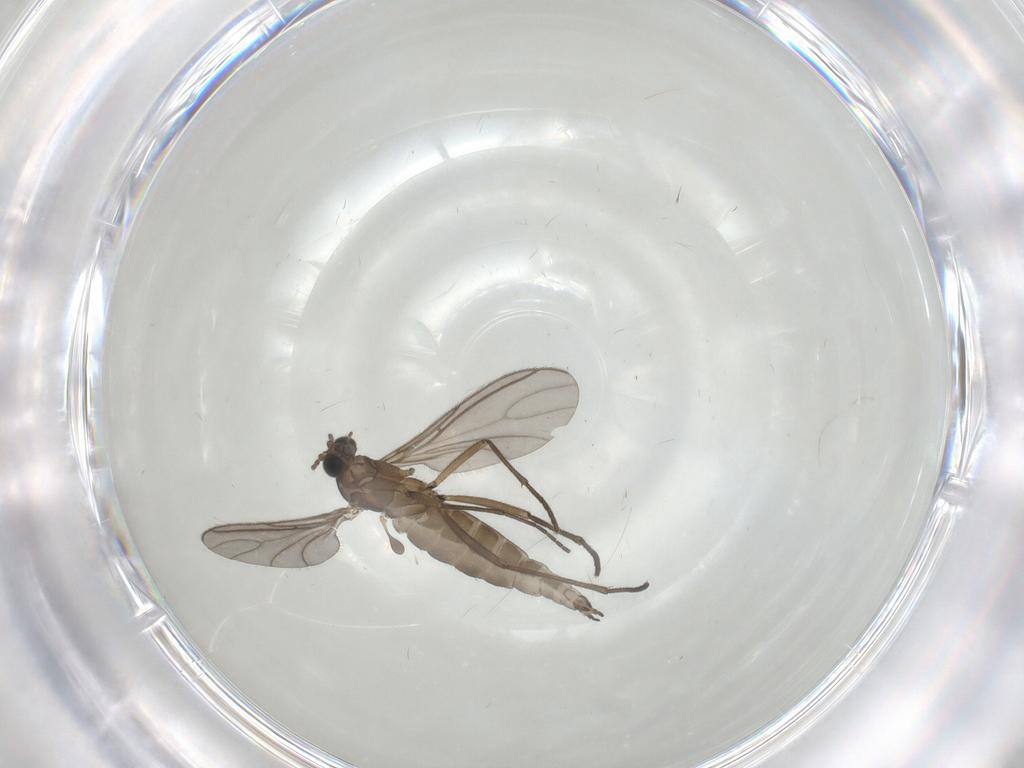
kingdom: Animalia
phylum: Arthropoda
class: Insecta
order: Diptera
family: Sciaridae
